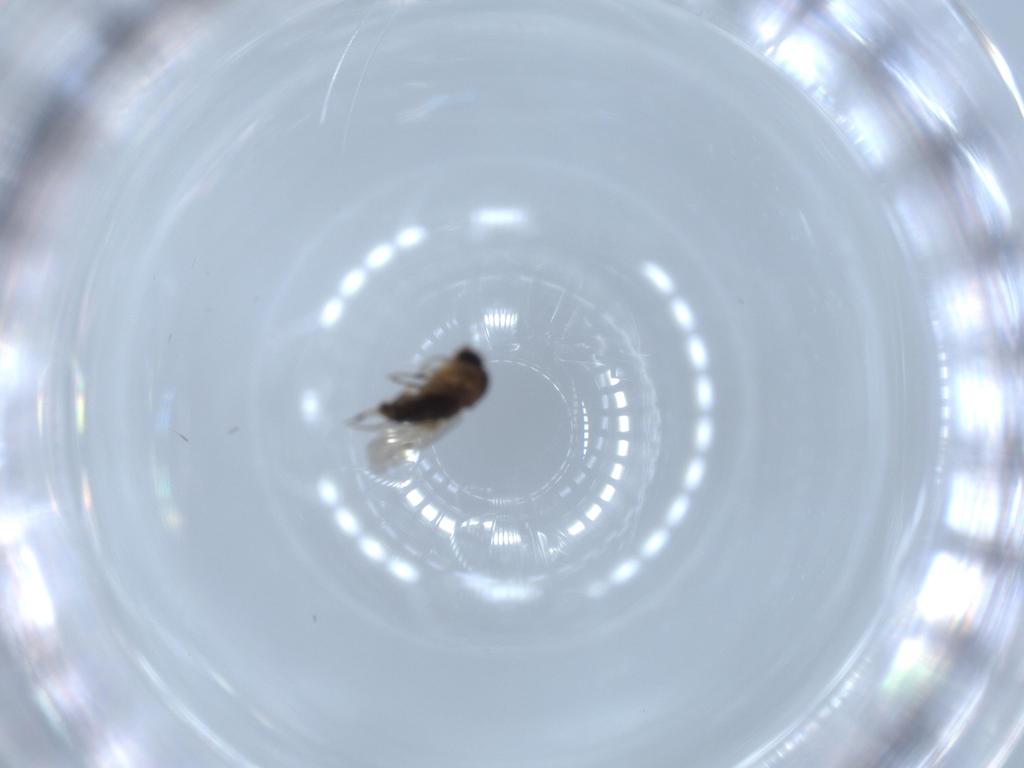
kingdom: Animalia
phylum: Arthropoda
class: Insecta
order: Diptera
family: Phoridae
